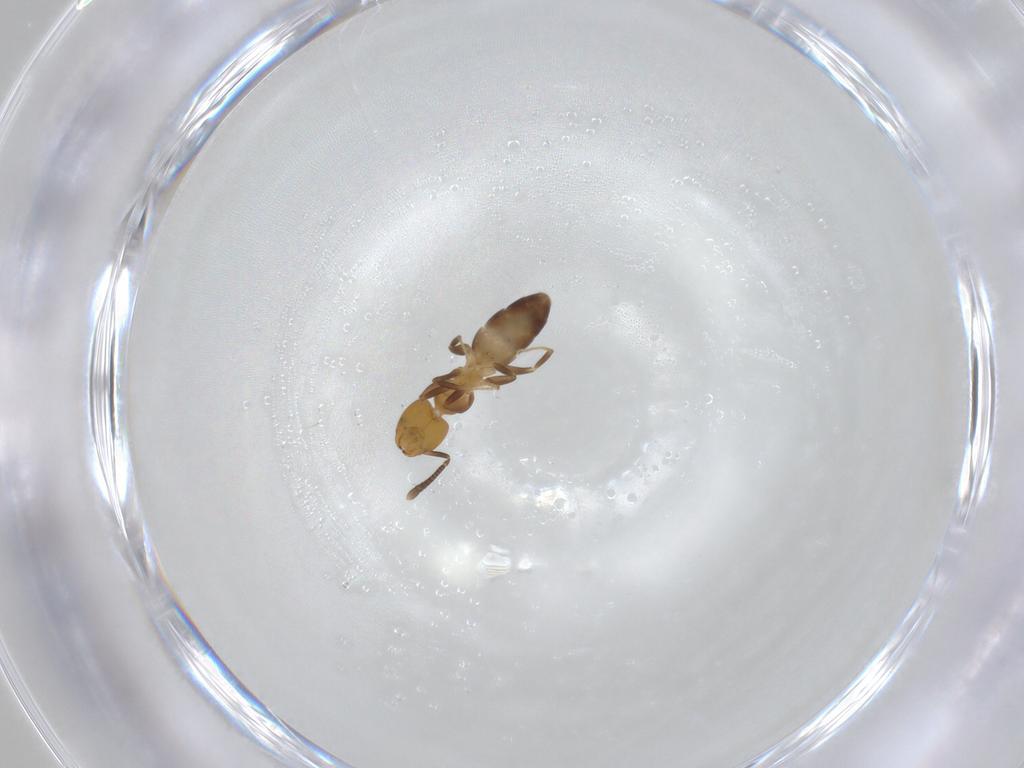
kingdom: Animalia
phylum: Arthropoda
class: Insecta
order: Hymenoptera
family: Formicidae
